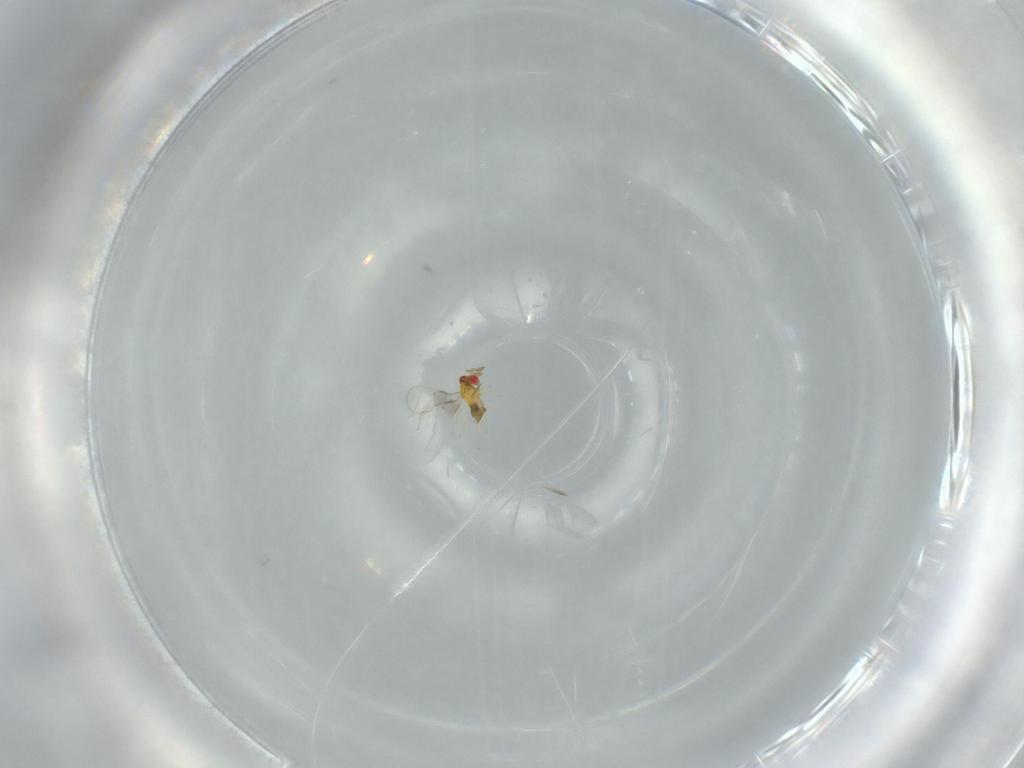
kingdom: Animalia
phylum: Arthropoda
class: Insecta
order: Hymenoptera
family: Trichogrammatidae
